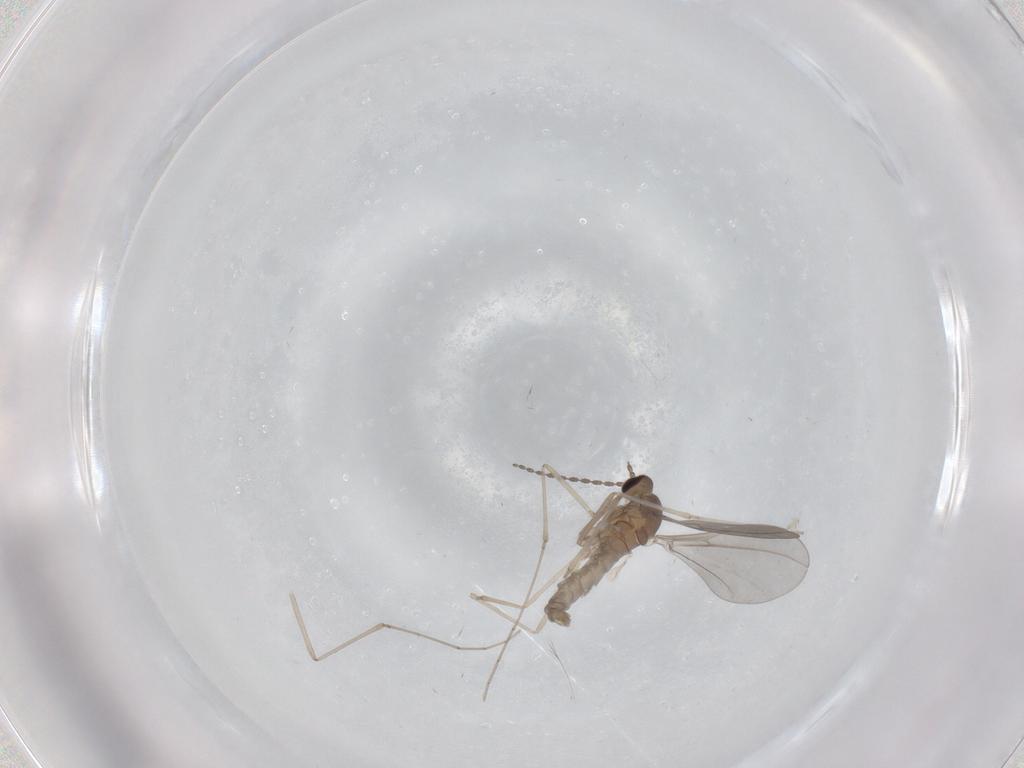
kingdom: Animalia
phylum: Arthropoda
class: Insecta
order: Diptera
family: Cecidomyiidae
